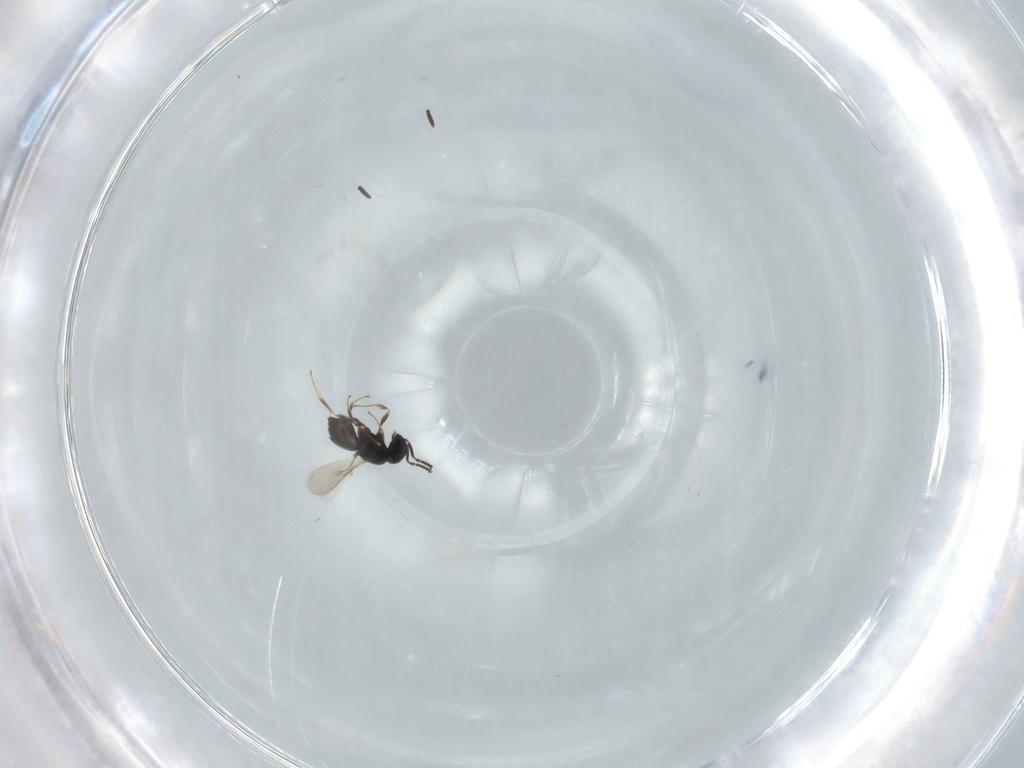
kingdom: Animalia
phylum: Arthropoda
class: Insecta
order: Hymenoptera
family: Scelionidae
